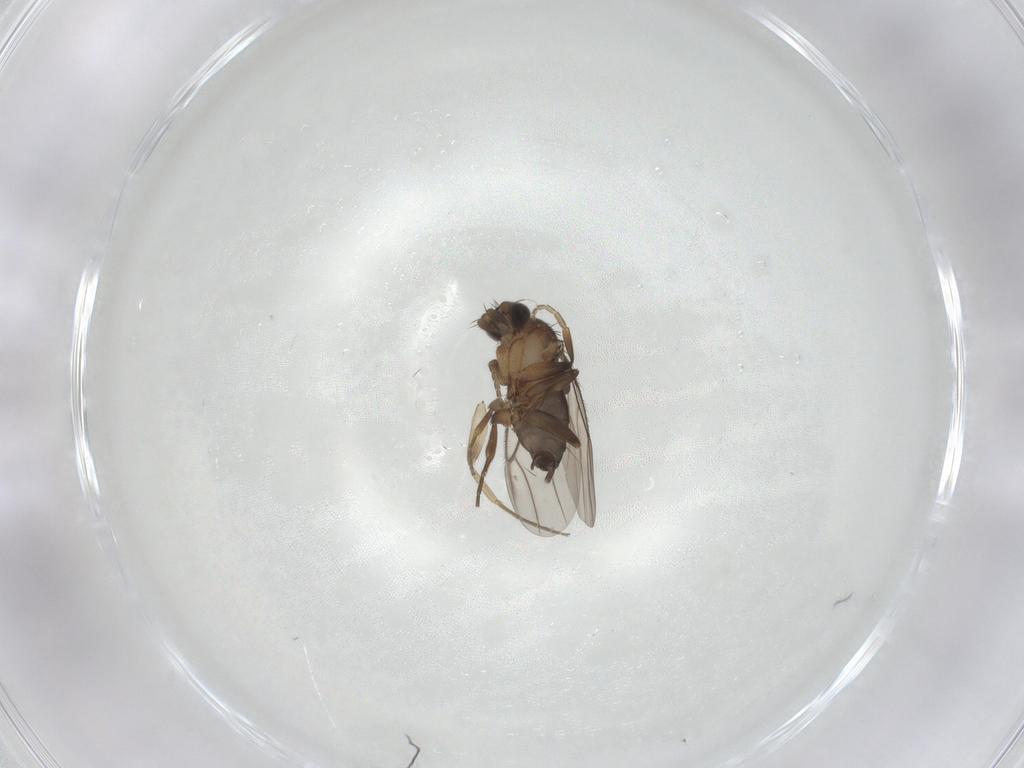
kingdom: Animalia
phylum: Arthropoda
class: Insecta
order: Diptera
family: Phoridae
